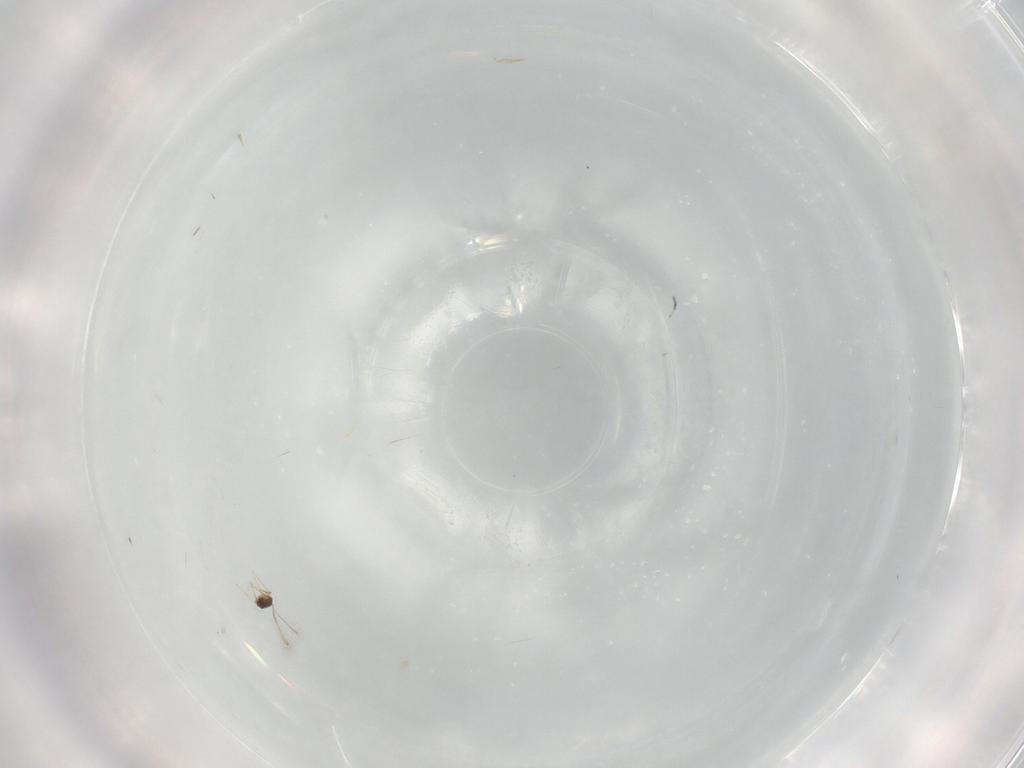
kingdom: Animalia
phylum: Arthropoda
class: Insecta
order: Hymenoptera
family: Vespidae
